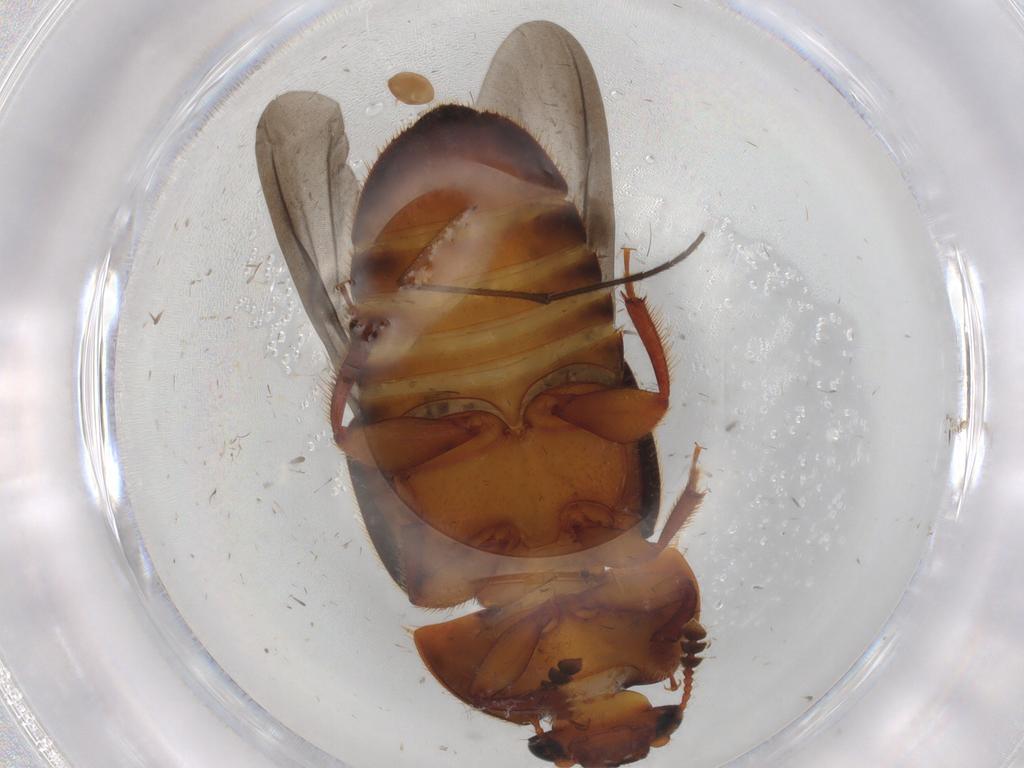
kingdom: Animalia
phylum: Arthropoda
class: Insecta
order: Coleoptera
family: Nitidulidae
